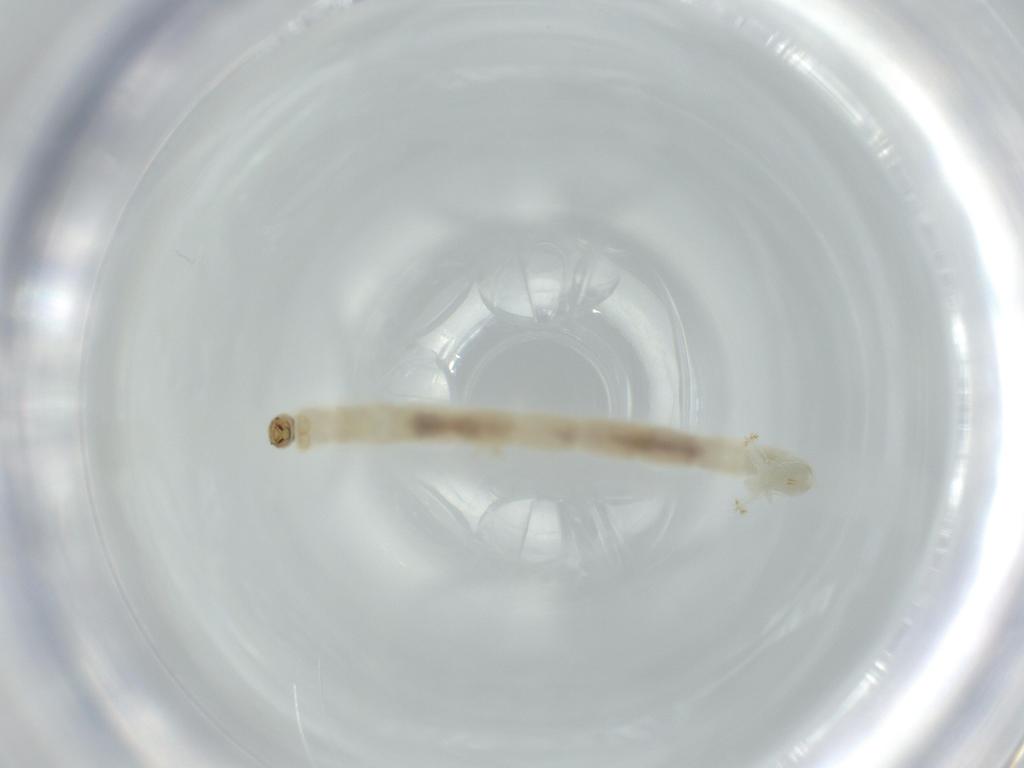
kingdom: Animalia
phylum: Arthropoda
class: Insecta
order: Diptera
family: Chironomidae
